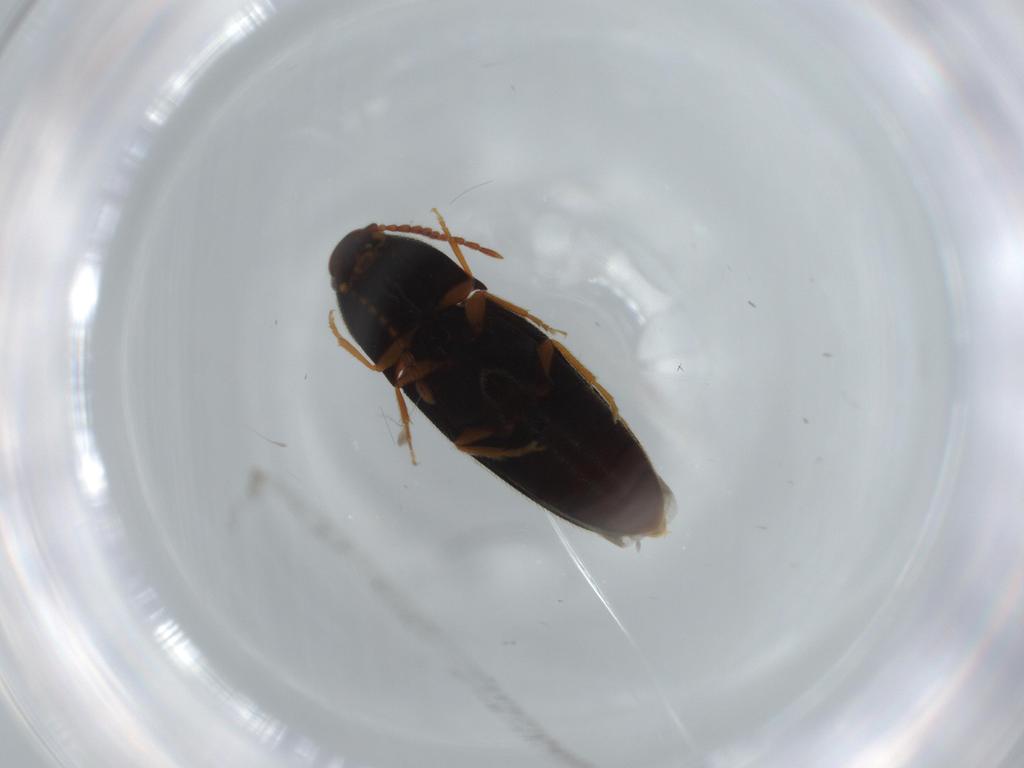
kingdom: Animalia
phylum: Arthropoda
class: Insecta
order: Coleoptera
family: Elateridae
